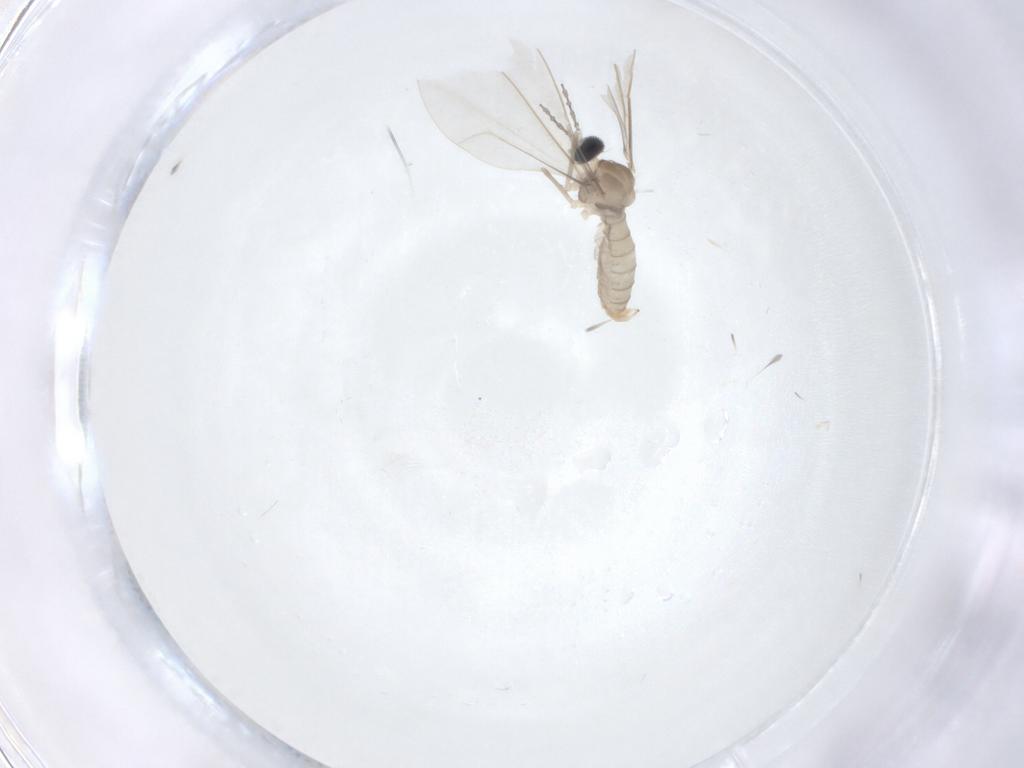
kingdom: Animalia
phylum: Arthropoda
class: Insecta
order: Diptera
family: Cecidomyiidae
